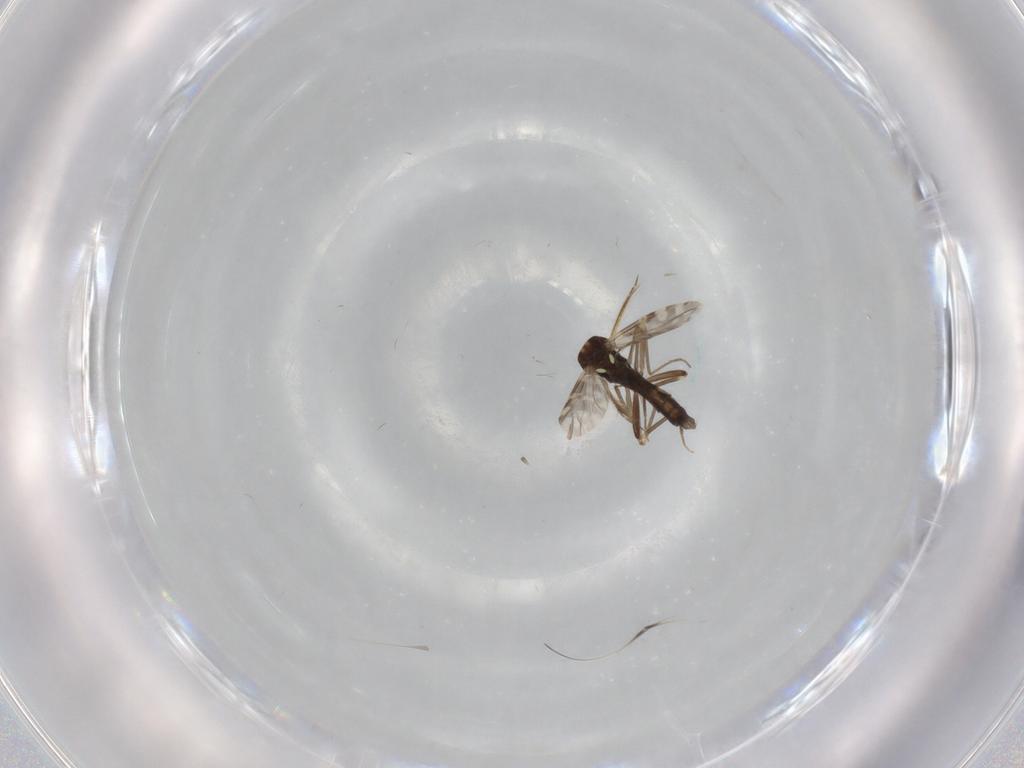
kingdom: Animalia
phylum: Arthropoda
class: Insecta
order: Diptera
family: Ceratopogonidae
